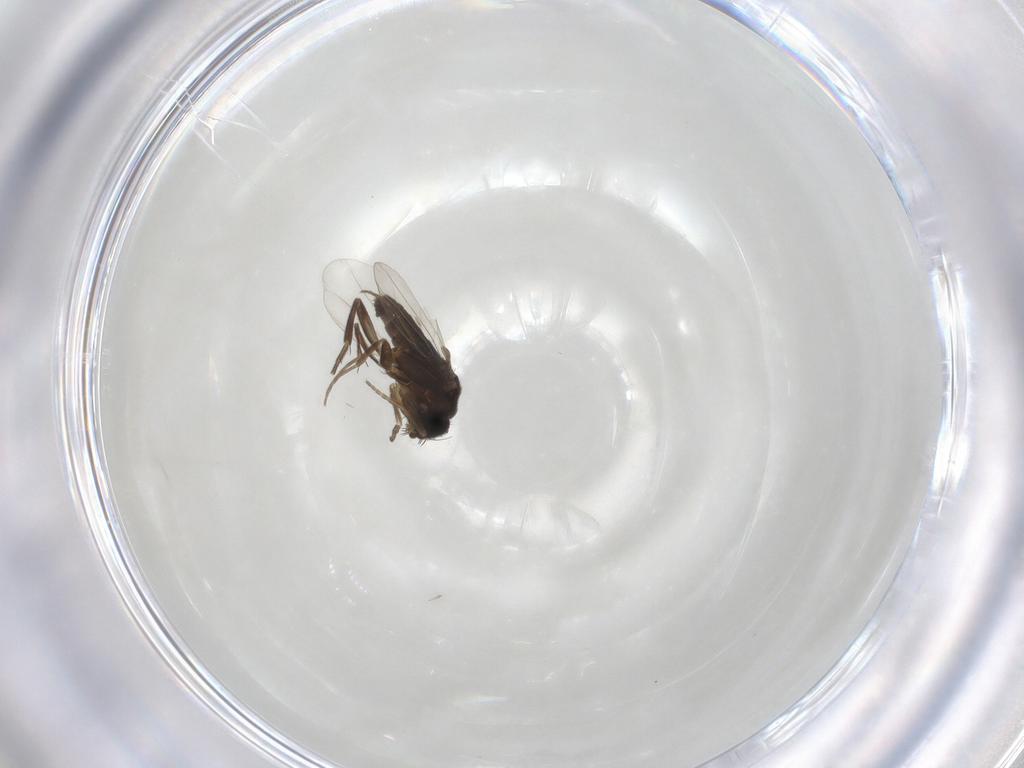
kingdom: Animalia
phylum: Arthropoda
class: Insecta
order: Diptera
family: Phoridae
